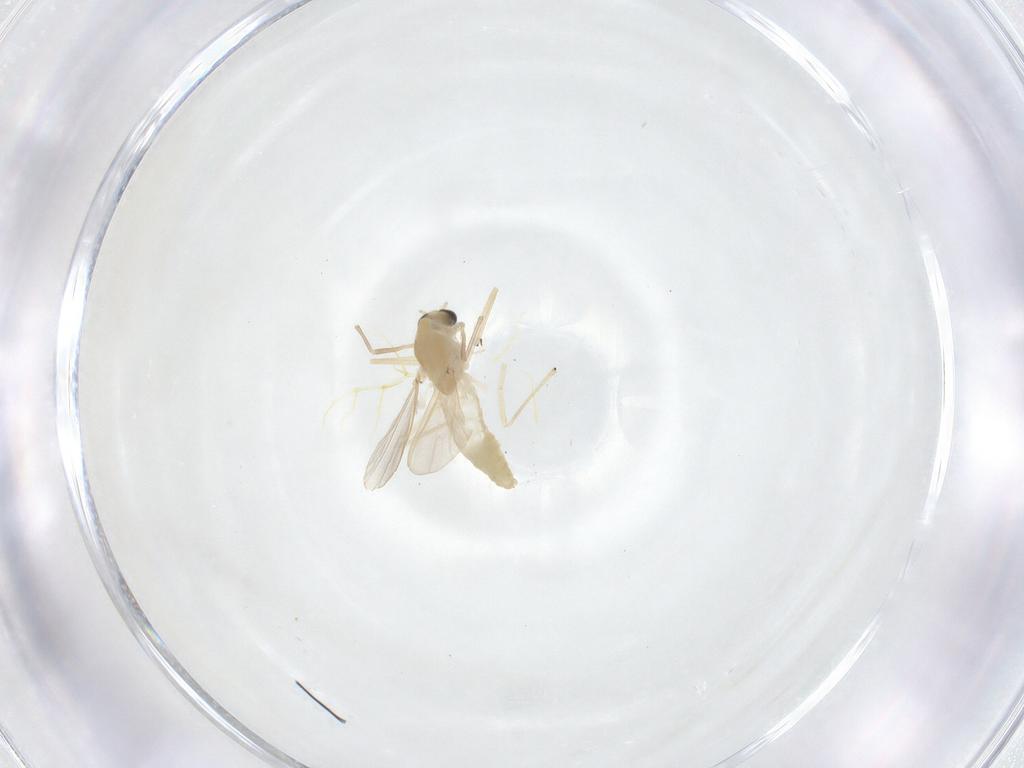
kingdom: Animalia
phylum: Arthropoda
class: Insecta
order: Diptera
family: Chironomidae
